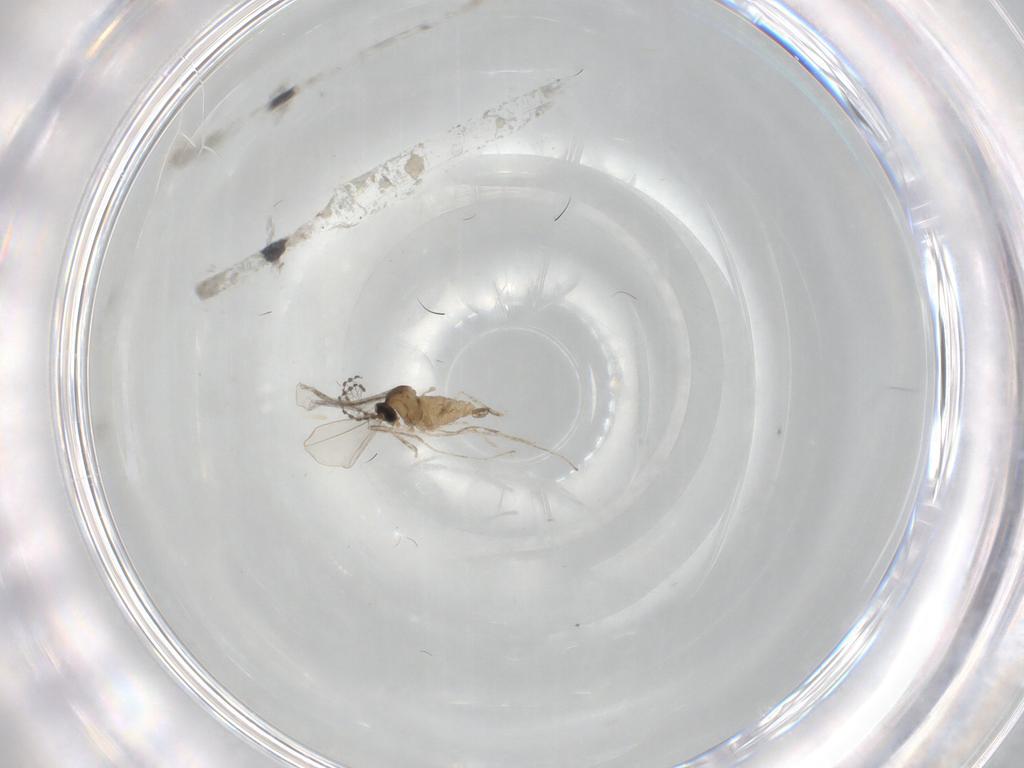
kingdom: Animalia
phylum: Arthropoda
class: Insecta
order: Diptera
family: Cecidomyiidae
